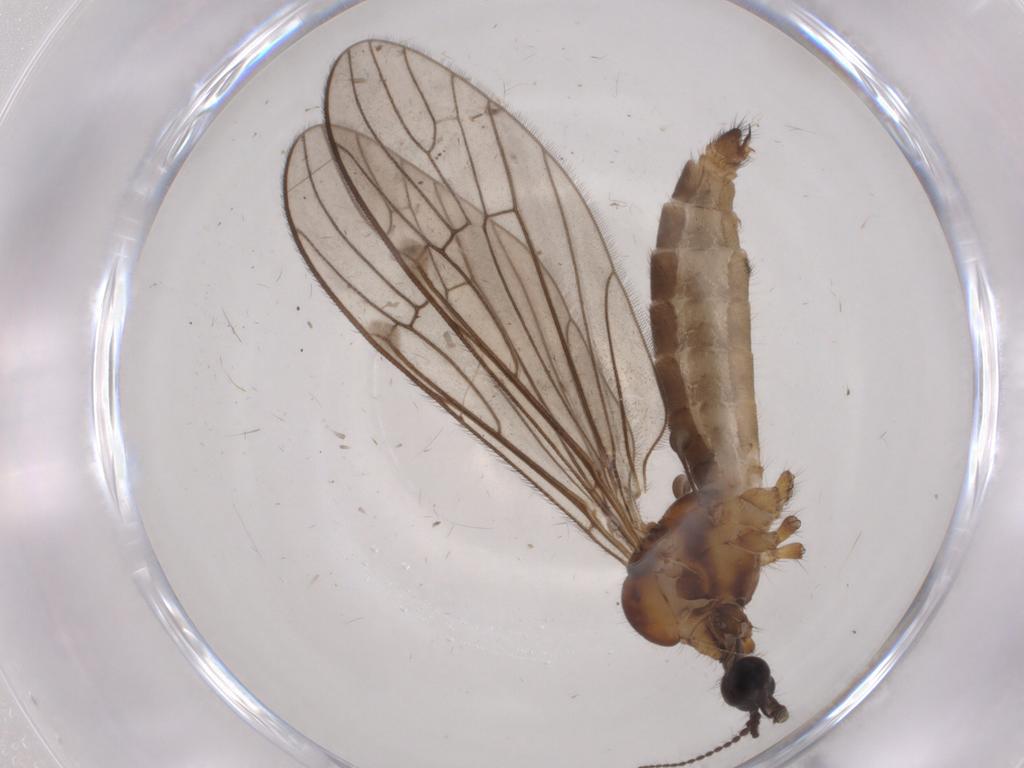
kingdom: Animalia
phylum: Arthropoda
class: Insecta
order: Diptera
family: Limoniidae
